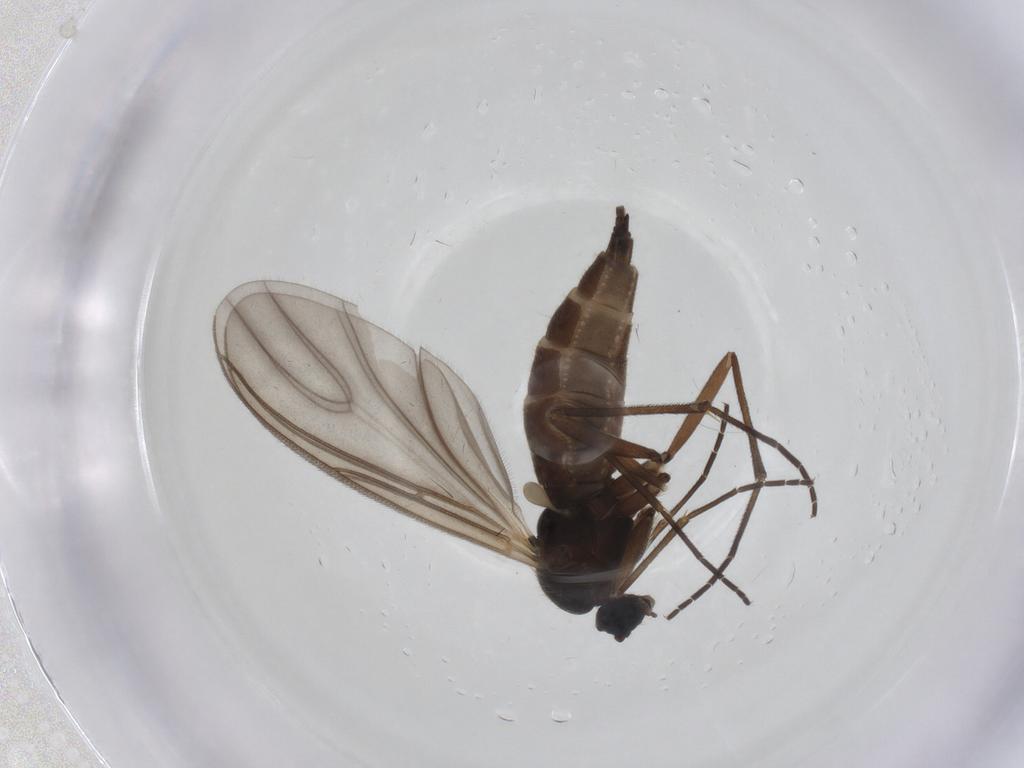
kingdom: Animalia
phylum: Arthropoda
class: Insecta
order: Diptera
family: Sciaridae
